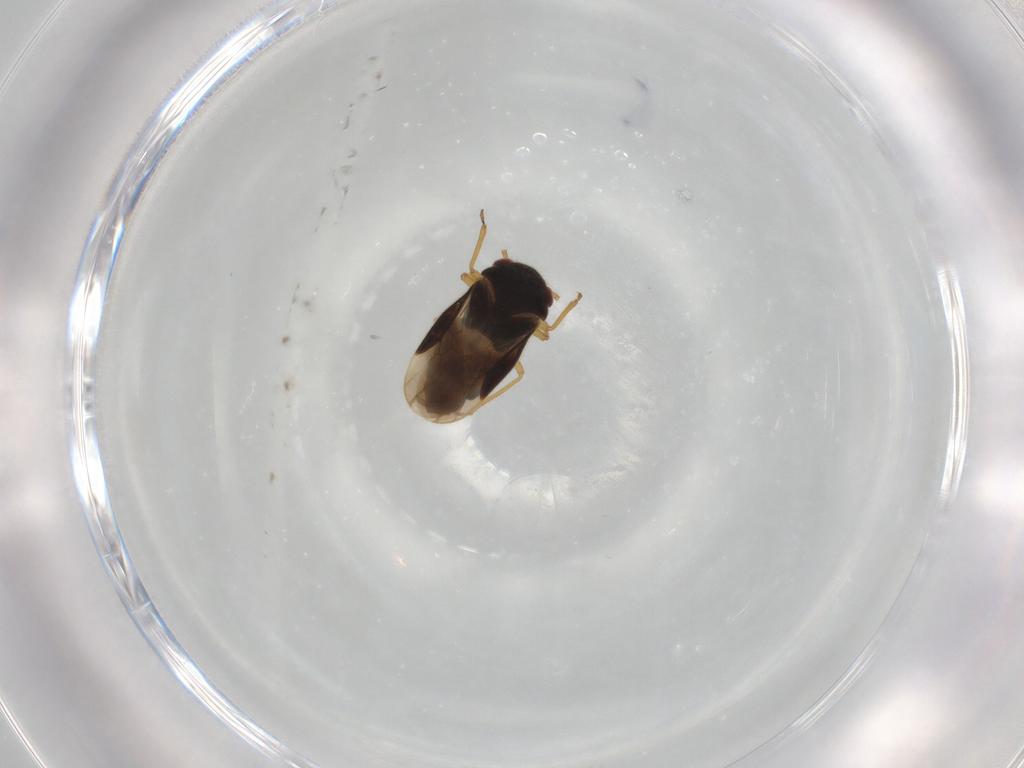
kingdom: Animalia
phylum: Arthropoda
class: Insecta
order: Hemiptera
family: Schizopteridae
